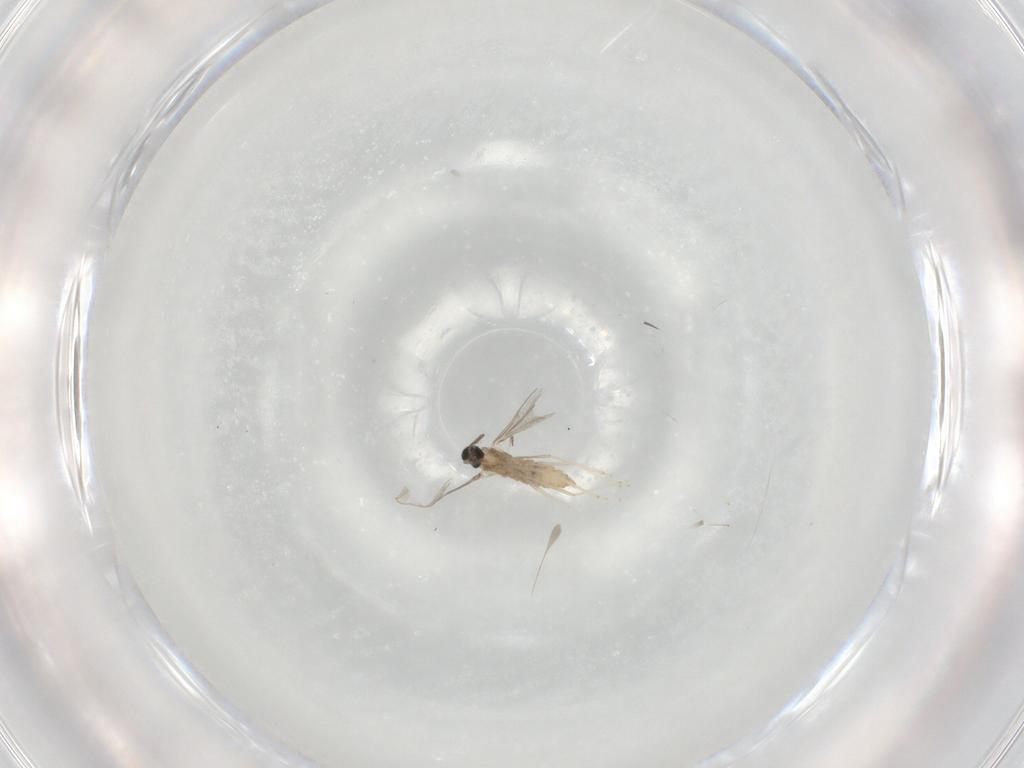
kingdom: Animalia
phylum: Arthropoda
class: Insecta
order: Diptera
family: Cecidomyiidae
